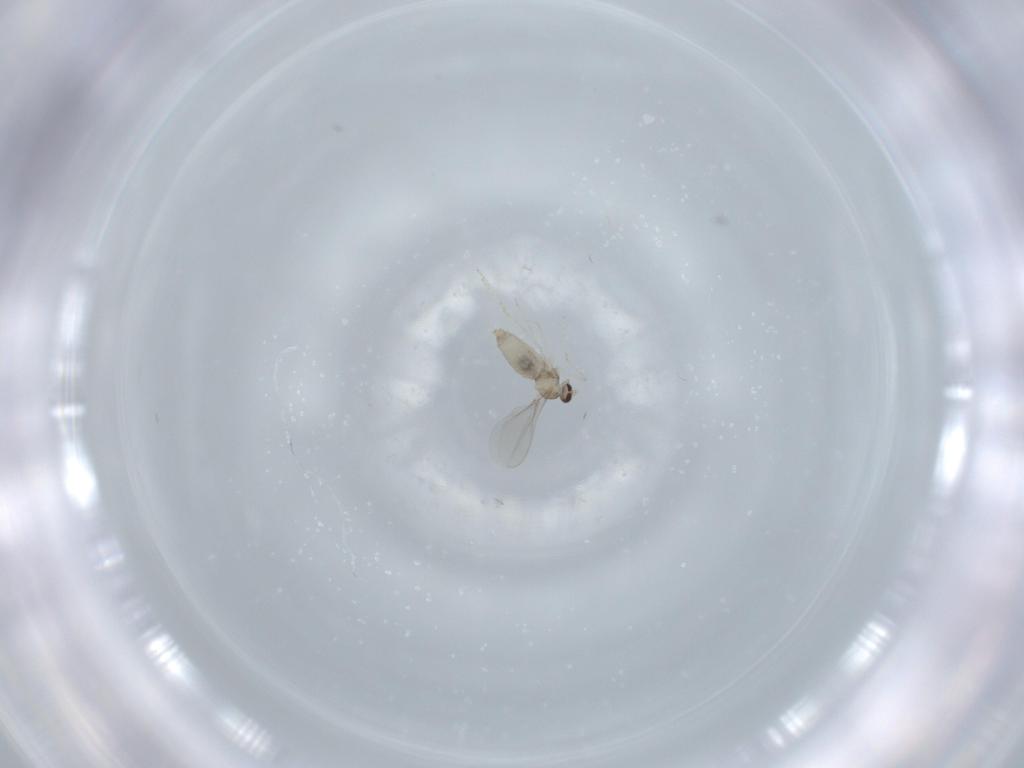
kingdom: Animalia
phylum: Arthropoda
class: Insecta
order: Diptera
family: Cecidomyiidae
